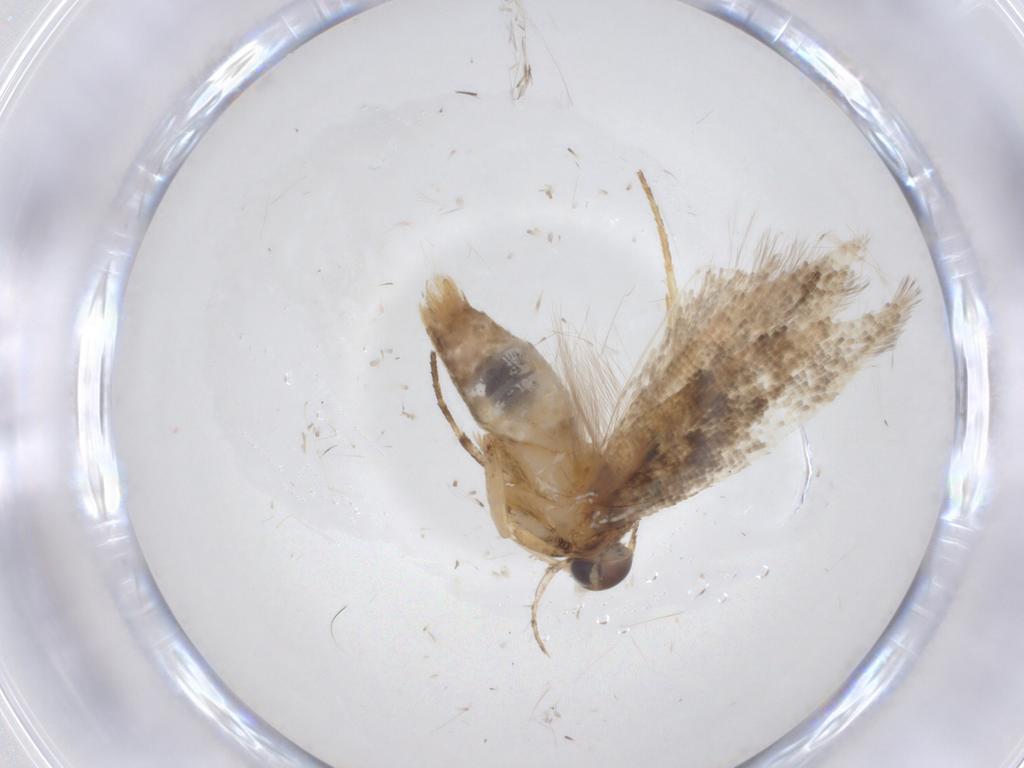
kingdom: Animalia
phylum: Arthropoda
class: Insecta
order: Lepidoptera
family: Gelechiidae
